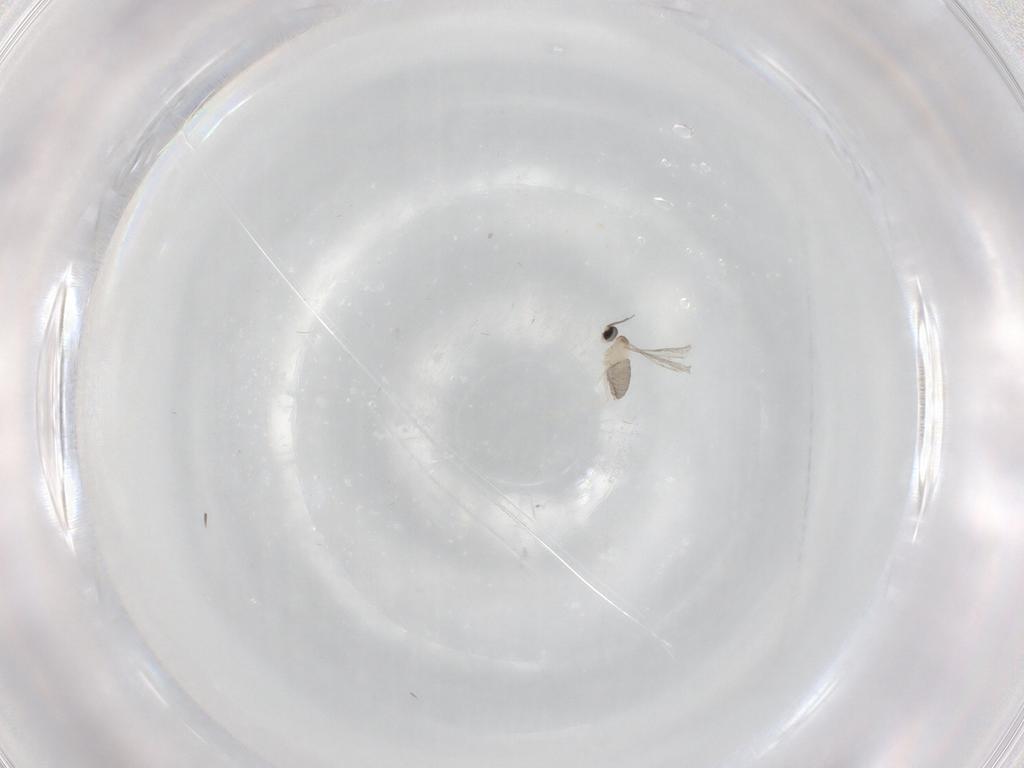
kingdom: Animalia
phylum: Arthropoda
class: Insecta
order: Diptera
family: Cecidomyiidae
